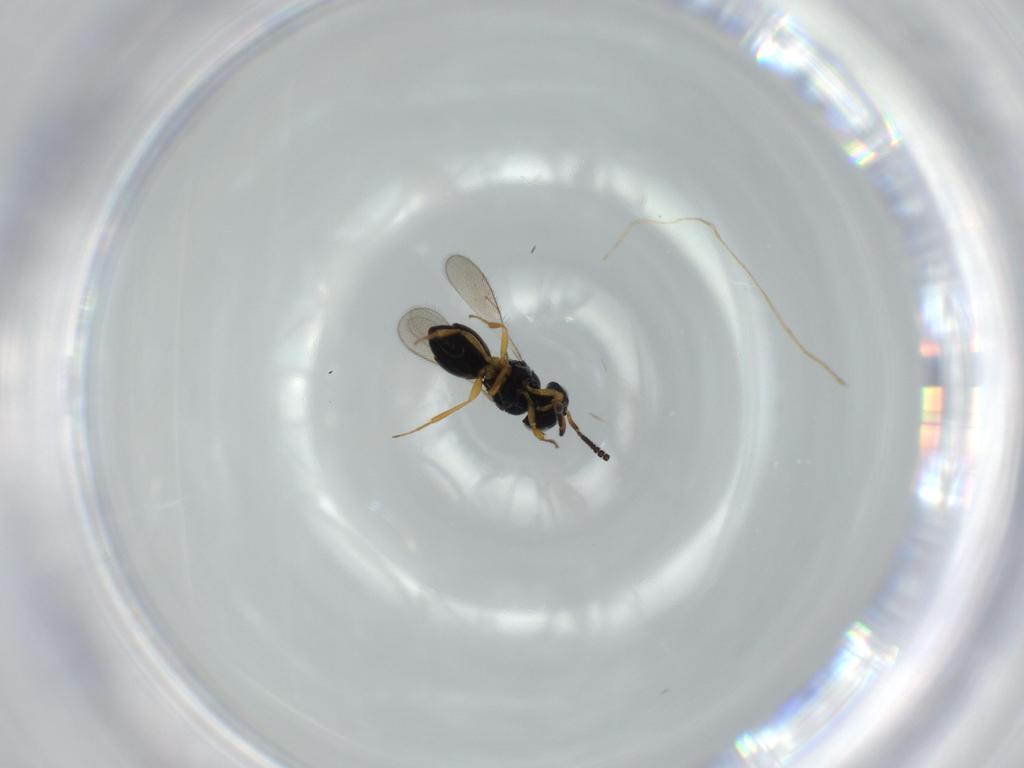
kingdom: Animalia
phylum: Arthropoda
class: Insecta
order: Hymenoptera
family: Scelionidae
